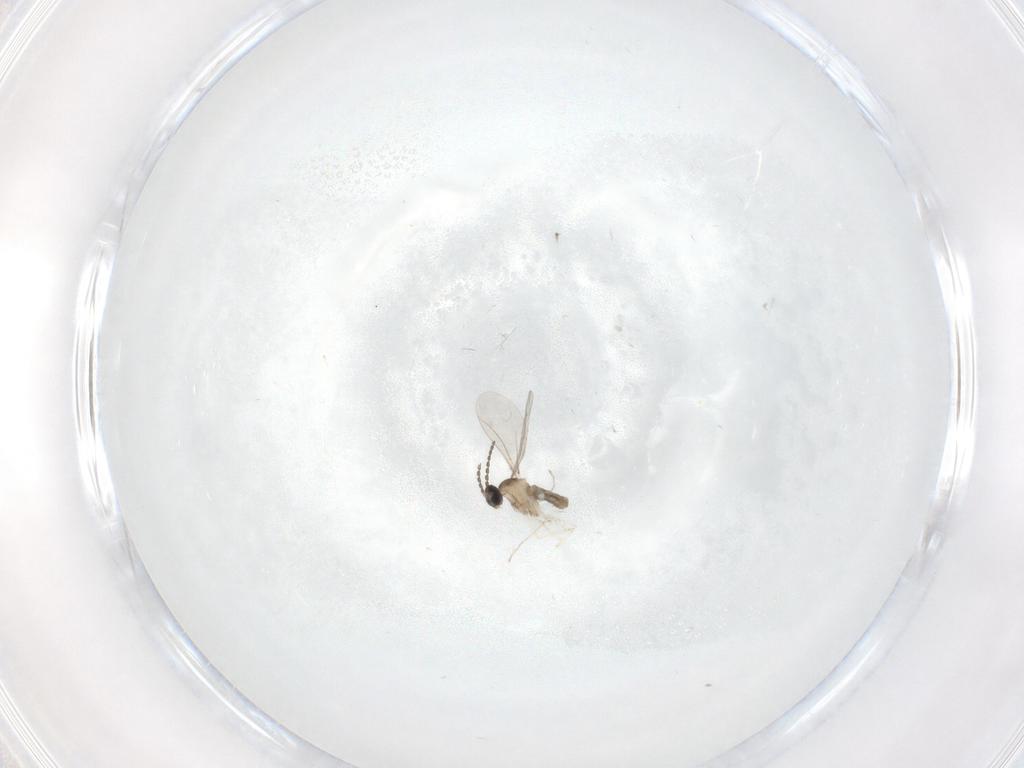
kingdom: Animalia
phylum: Arthropoda
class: Insecta
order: Diptera
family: Cecidomyiidae
